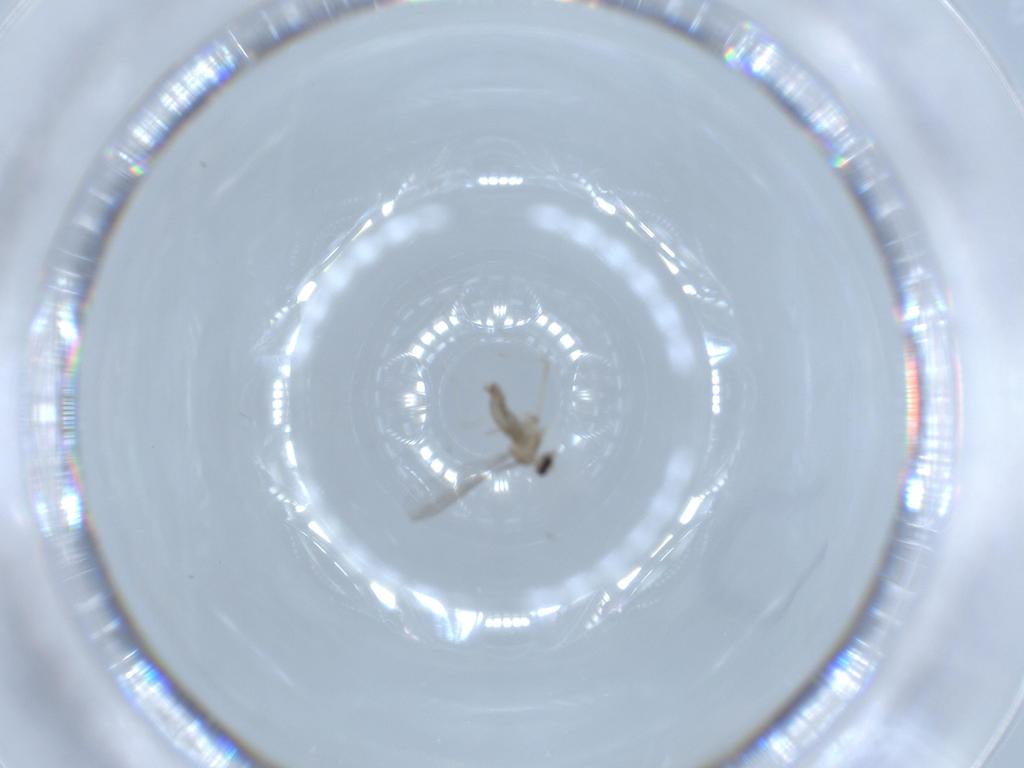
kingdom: Animalia
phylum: Arthropoda
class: Insecta
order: Diptera
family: Cecidomyiidae
